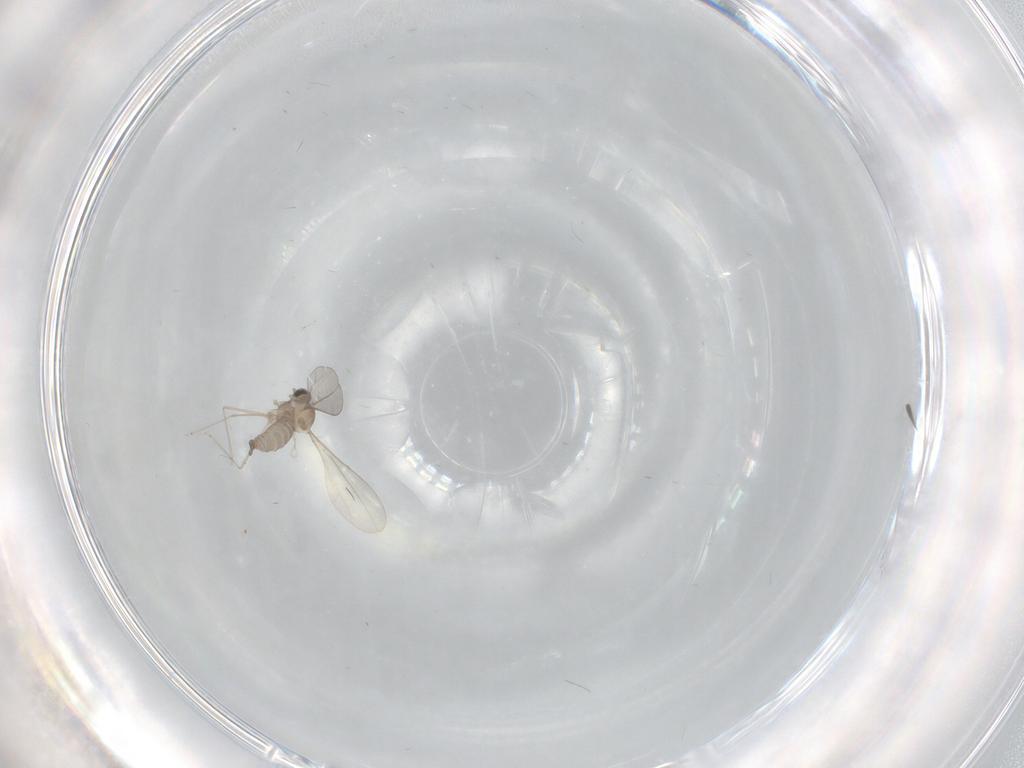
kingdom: Animalia
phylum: Arthropoda
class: Insecta
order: Diptera
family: Cecidomyiidae
